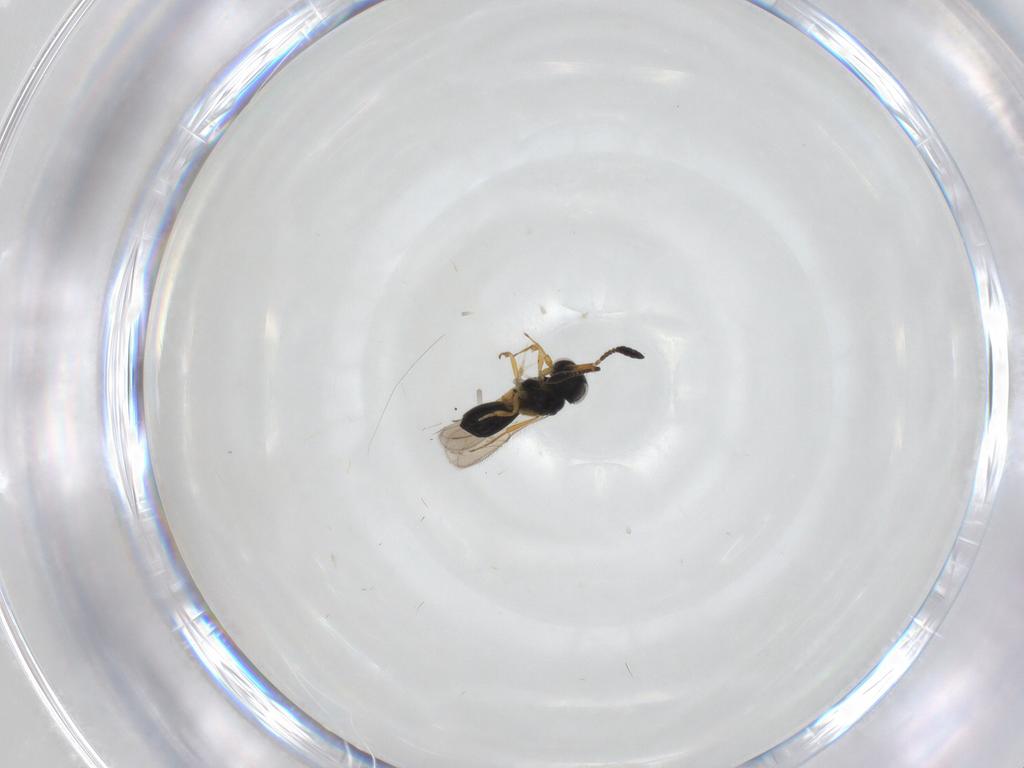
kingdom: Animalia
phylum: Arthropoda
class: Insecta
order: Hymenoptera
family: Scelionidae
